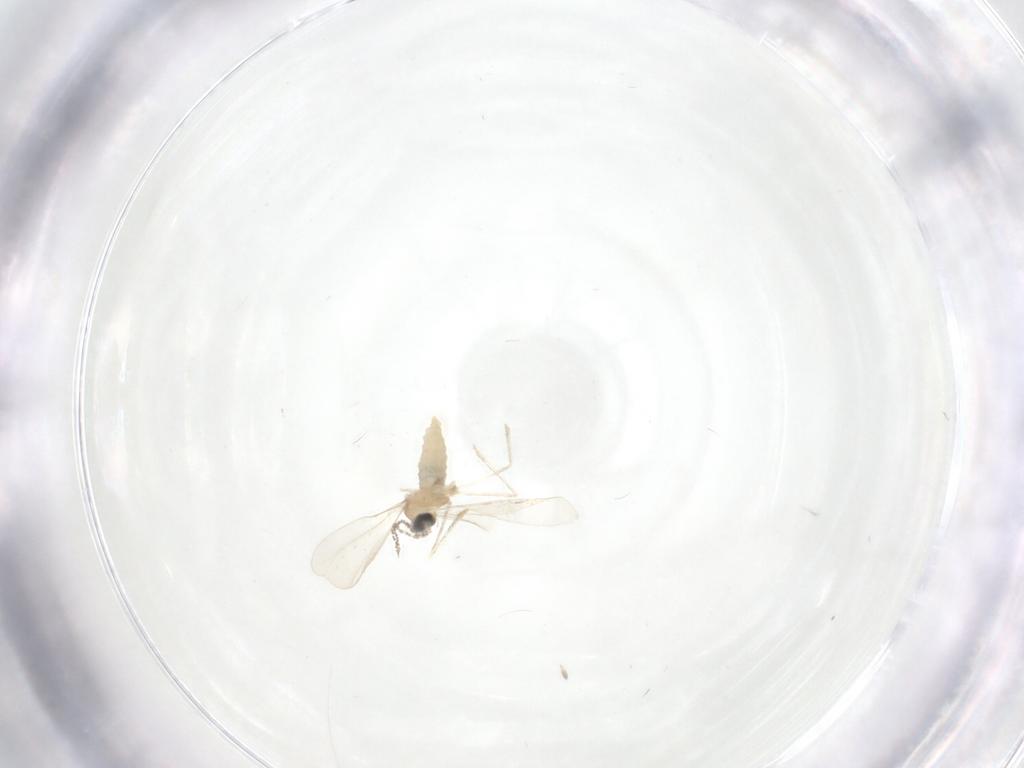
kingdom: Animalia
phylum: Arthropoda
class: Insecta
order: Diptera
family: Cecidomyiidae
